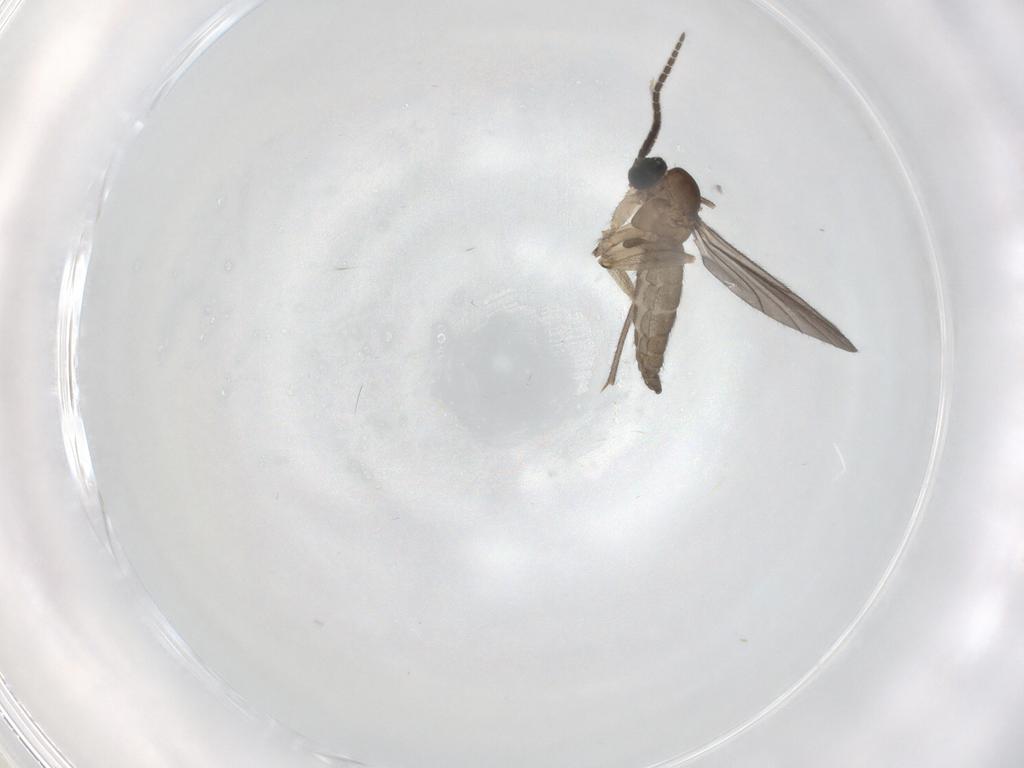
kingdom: Animalia
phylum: Arthropoda
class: Insecta
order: Diptera
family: Sciaridae
